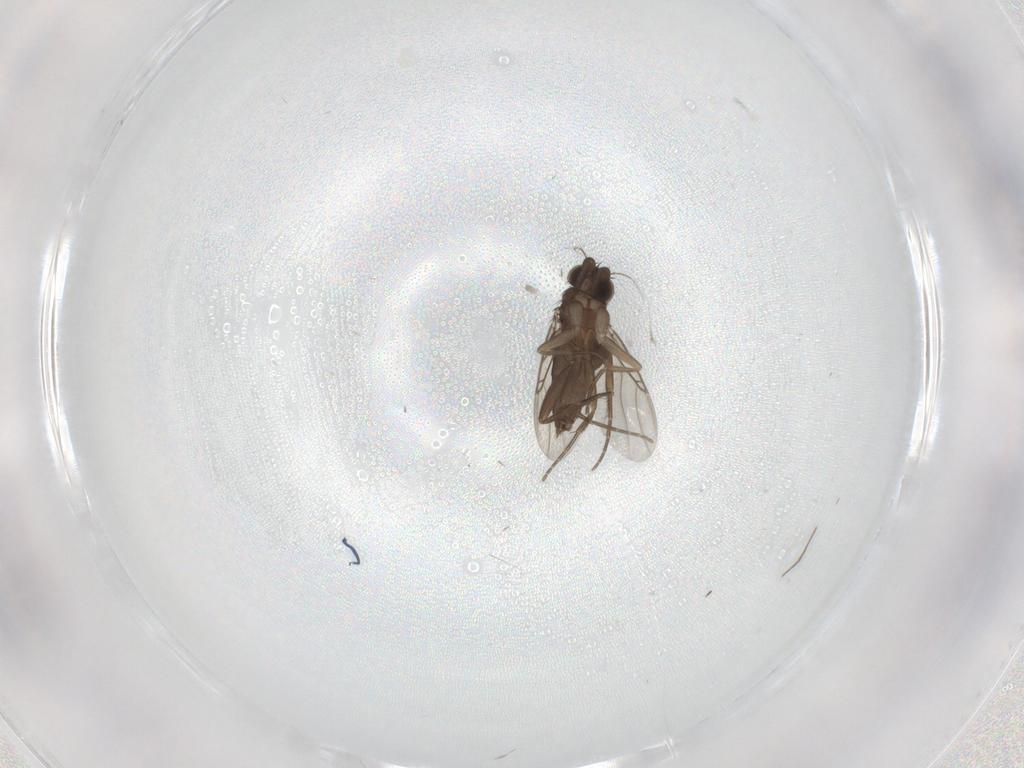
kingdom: Animalia
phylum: Arthropoda
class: Insecta
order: Diptera
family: Phoridae
